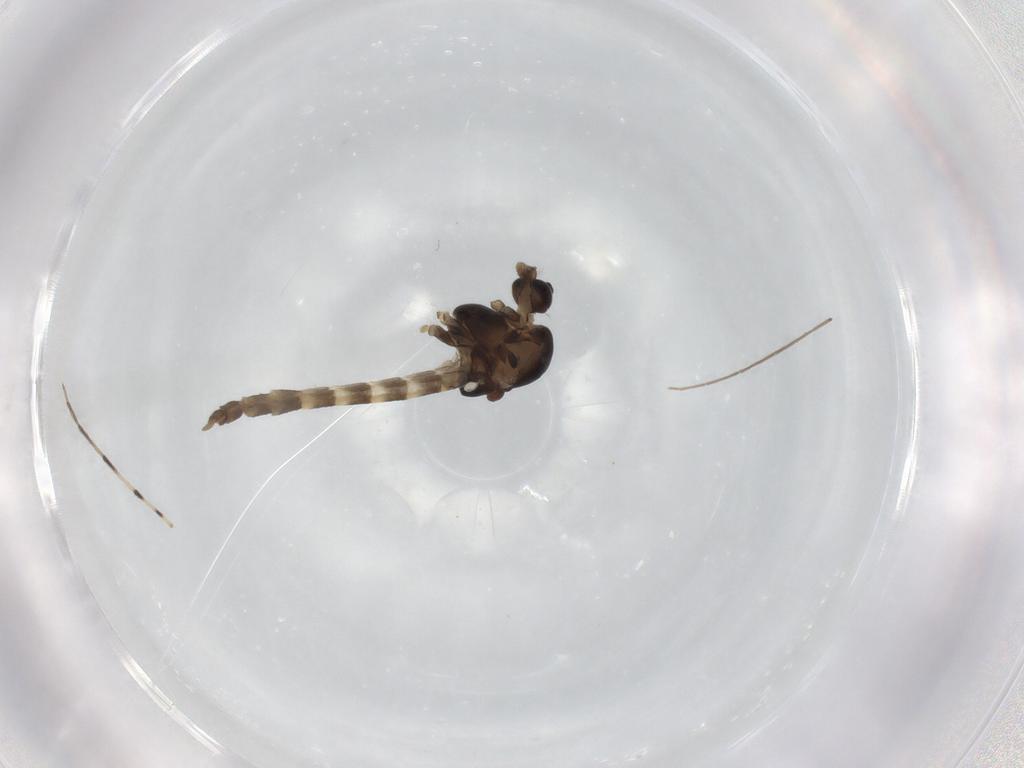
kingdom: Animalia
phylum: Arthropoda
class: Insecta
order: Diptera
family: Chironomidae
